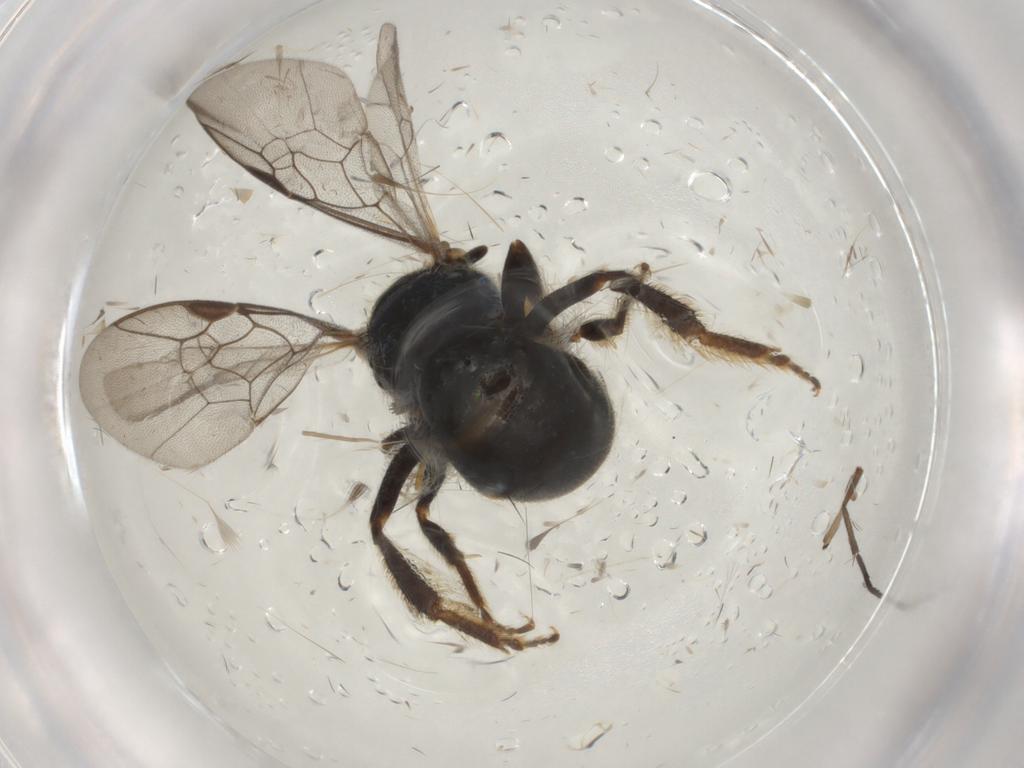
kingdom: Animalia
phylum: Arthropoda
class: Insecta
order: Hymenoptera
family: Halictidae
